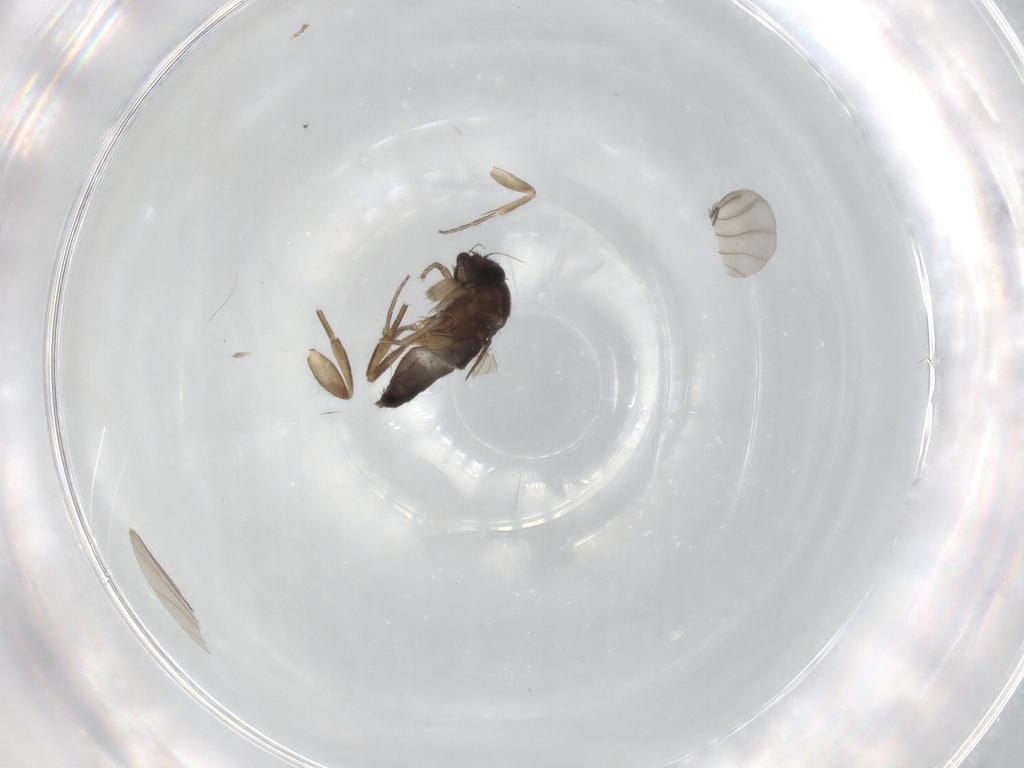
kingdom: Animalia
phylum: Arthropoda
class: Insecta
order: Diptera
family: Phoridae
